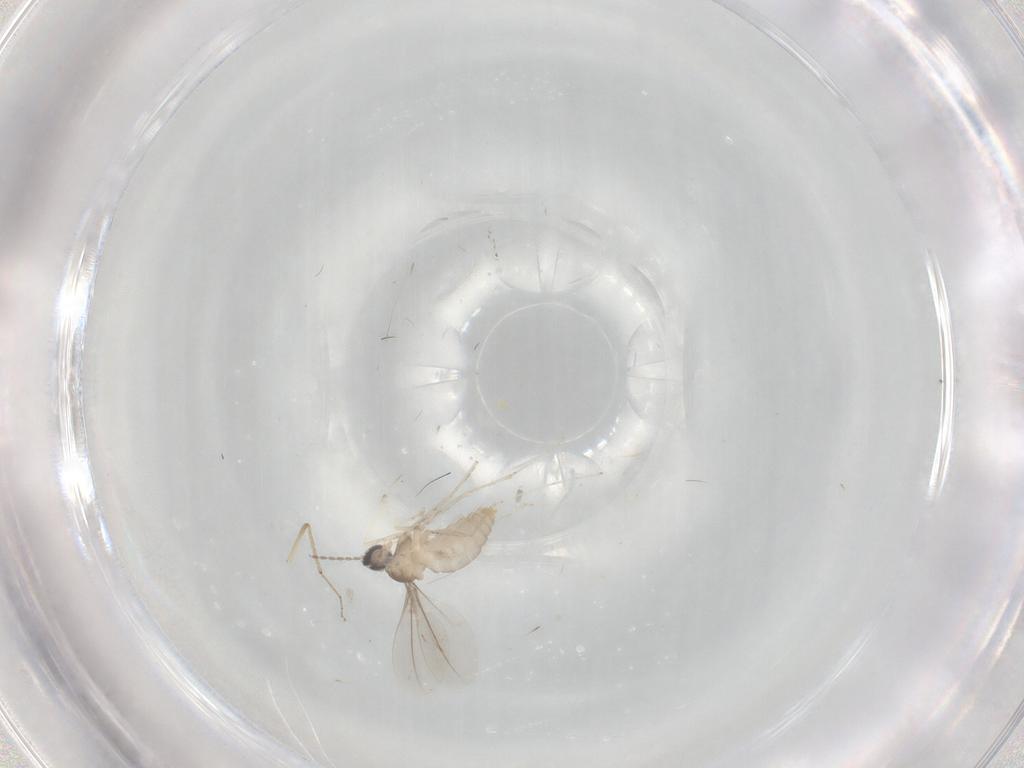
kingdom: Animalia
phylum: Arthropoda
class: Insecta
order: Diptera
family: Cecidomyiidae
